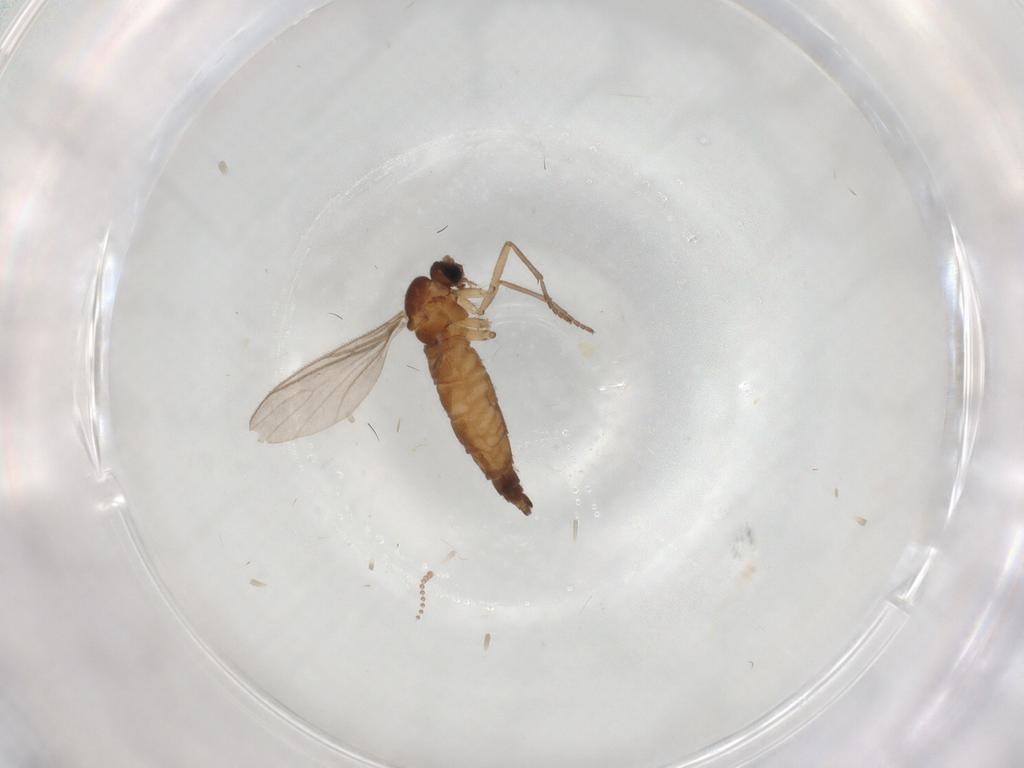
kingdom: Animalia
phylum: Arthropoda
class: Insecta
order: Diptera
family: Sciaridae
